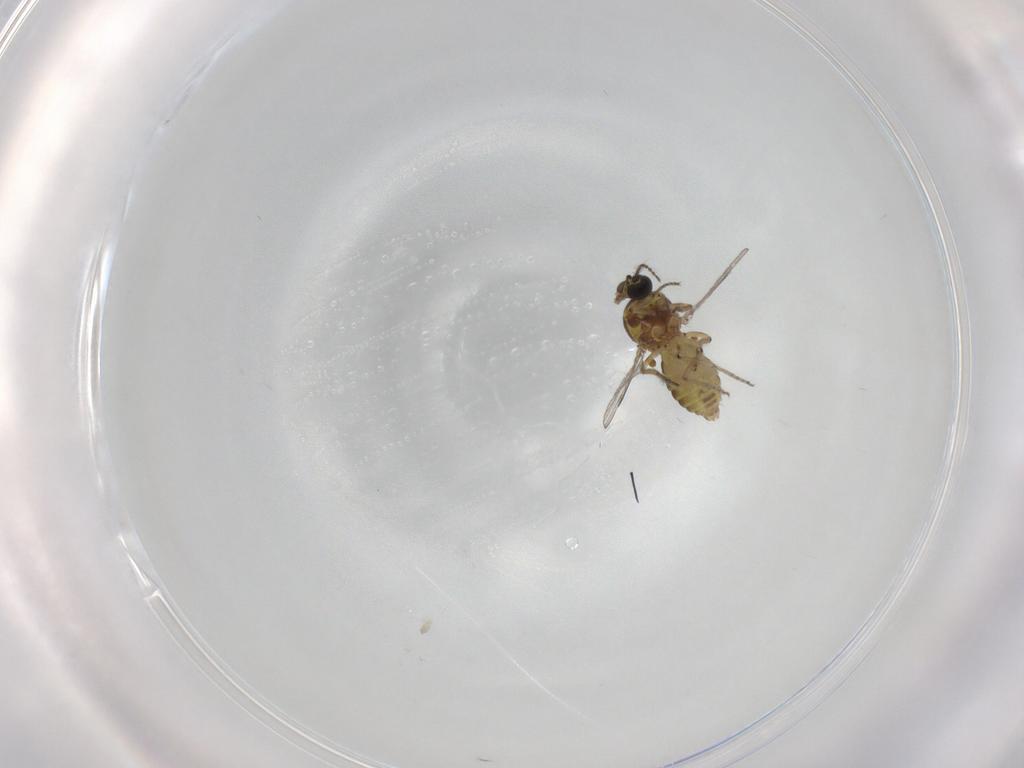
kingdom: Animalia
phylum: Arthropoda
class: Insecta
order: Diptera
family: Ceratopogonidae
